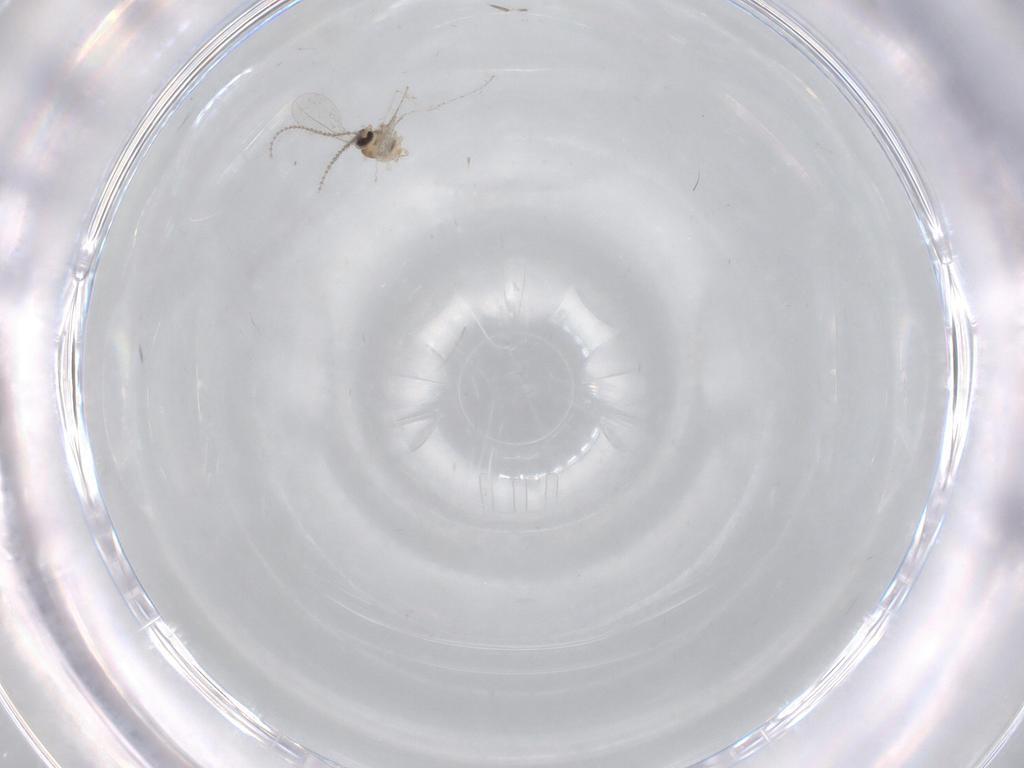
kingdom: Animalia
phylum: Arthropoda
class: Insecta
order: Diptera
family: Cecidomyiidae
